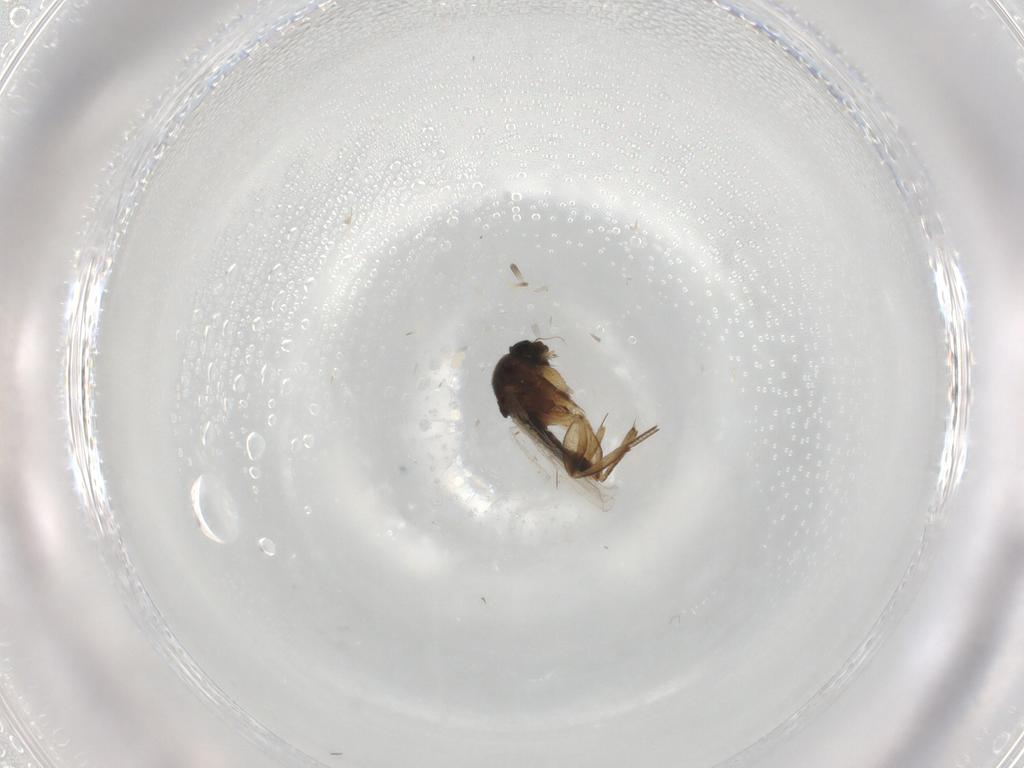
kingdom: Animalia
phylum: Arthropoda
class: Insecta
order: Diptera
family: Phoridae
